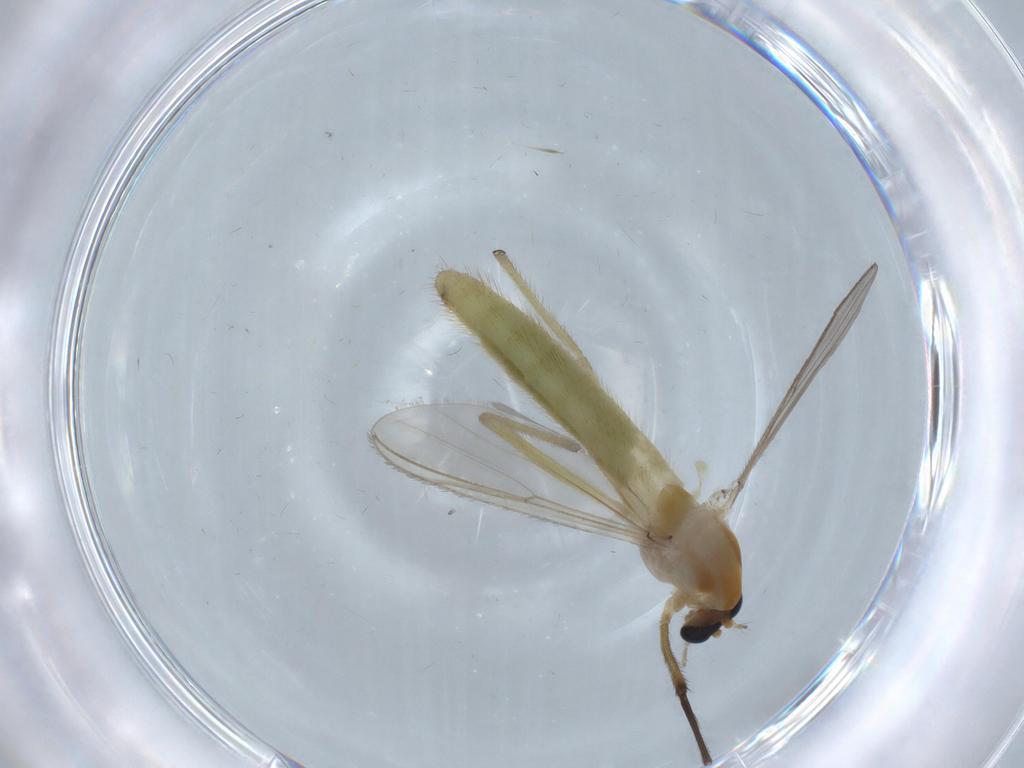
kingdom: Animalia
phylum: Arthropoda
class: Insecta
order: Diptera
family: Chironomidae
